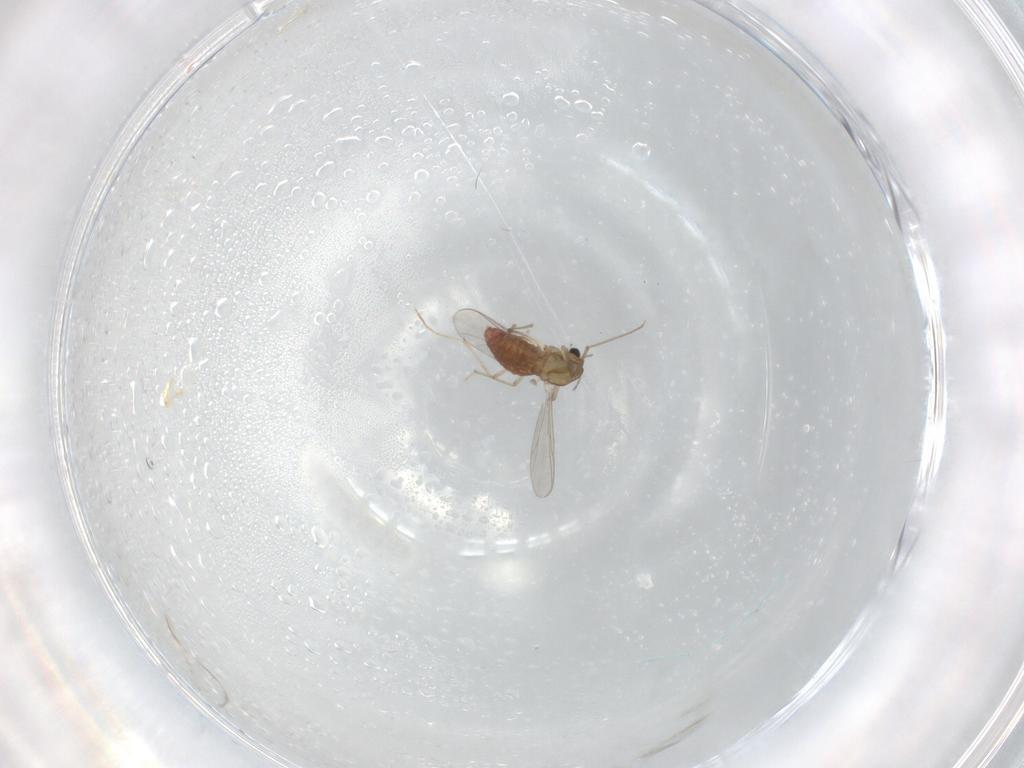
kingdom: Animalia
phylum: Arthropoda
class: Insecta
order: Diptera
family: Chironomidae
